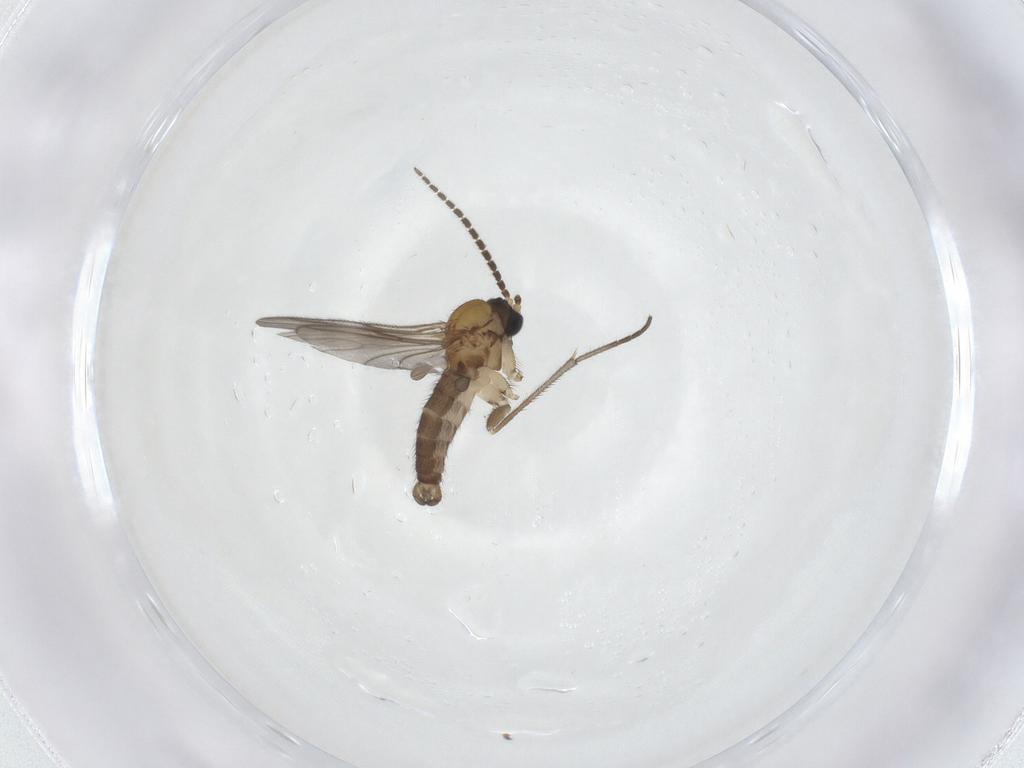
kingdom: Animalia
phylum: Arthropoda
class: Insecta
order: Diptera
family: Sciaridae
